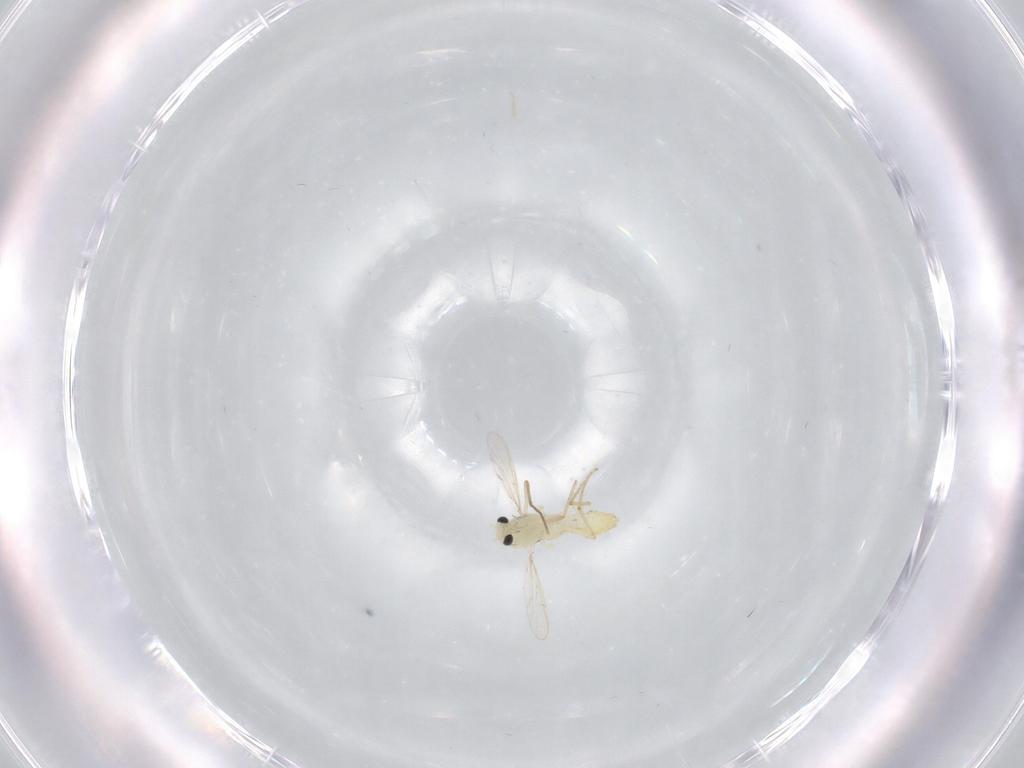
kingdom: Animalia
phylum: Arthropoda
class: Insecta
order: Diptera
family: Chironomidae
